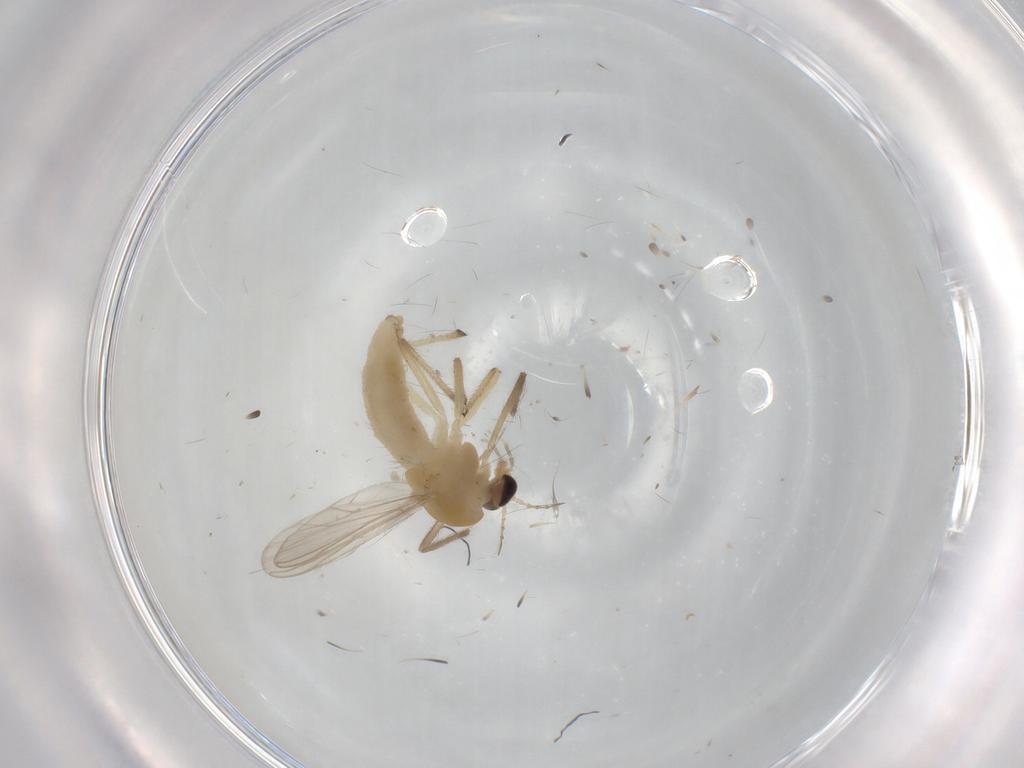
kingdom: Animalia
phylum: Arthropoda
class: Insecta
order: Diptera
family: Chironomidae
